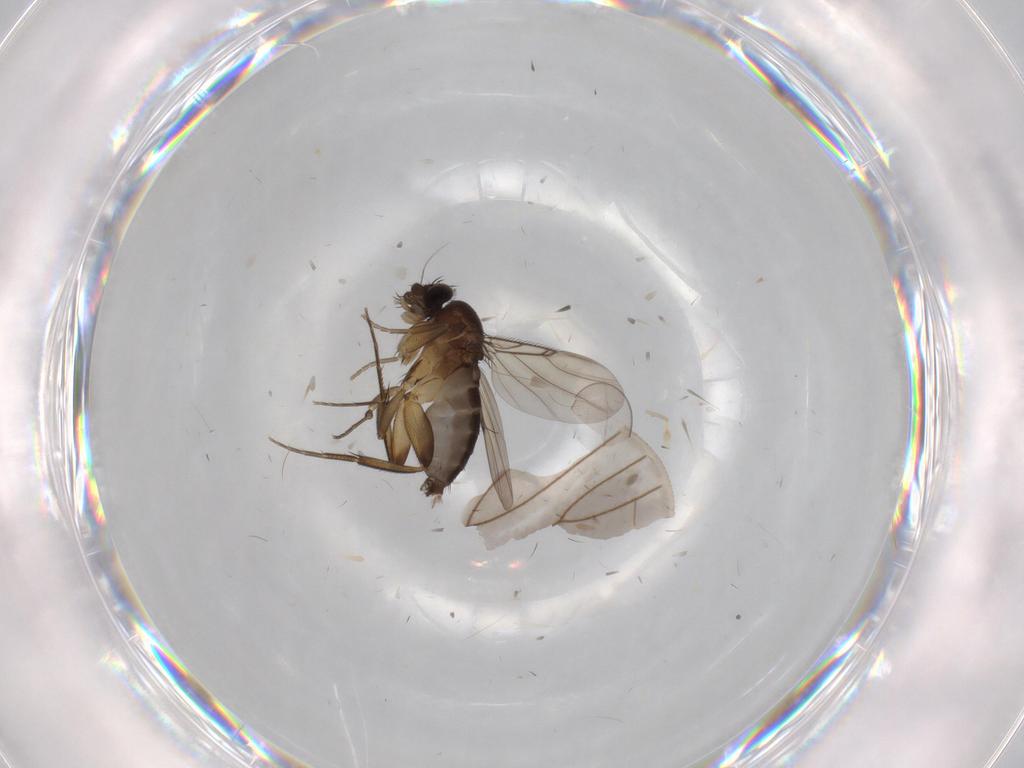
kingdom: Animalia
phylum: Arthropoda
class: Insecta
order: Diptera
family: Phoridae
